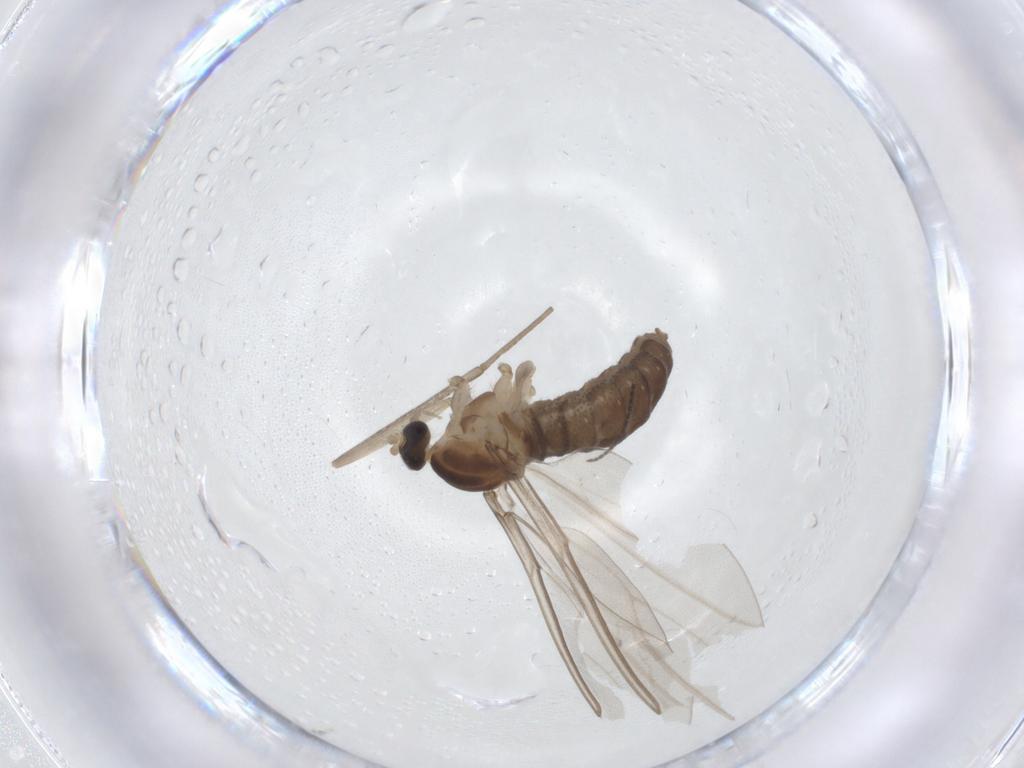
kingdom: Animalia
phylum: Arthropoda
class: Insecta
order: Diptera
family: Cecidomyiidae
